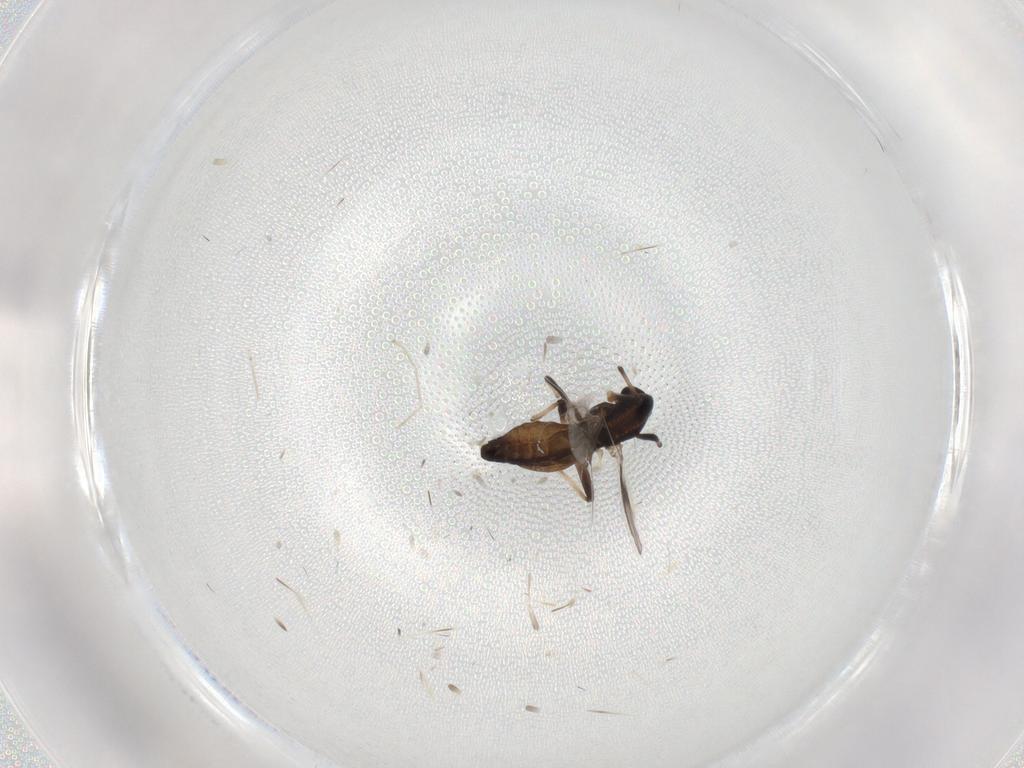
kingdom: Animalia
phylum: Arthropoda
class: Insecta
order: Diptera
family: Chironomidae
